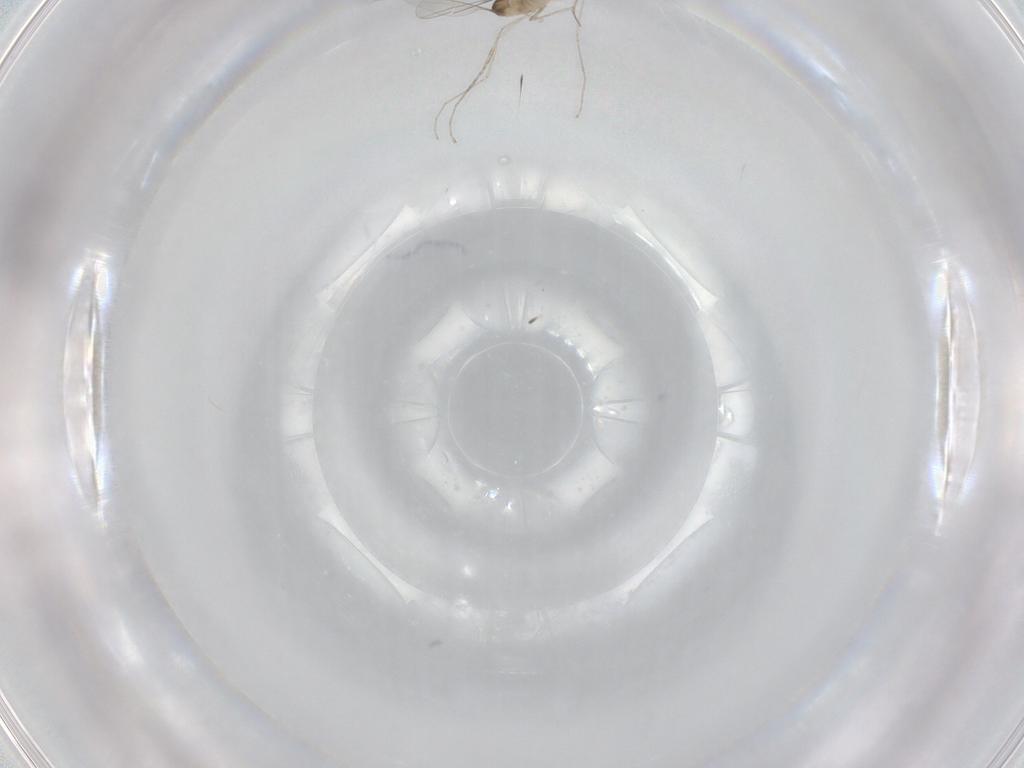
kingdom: Animalia
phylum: Arthropoda
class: Insecta
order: Diptera
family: Cecidomyiidae
